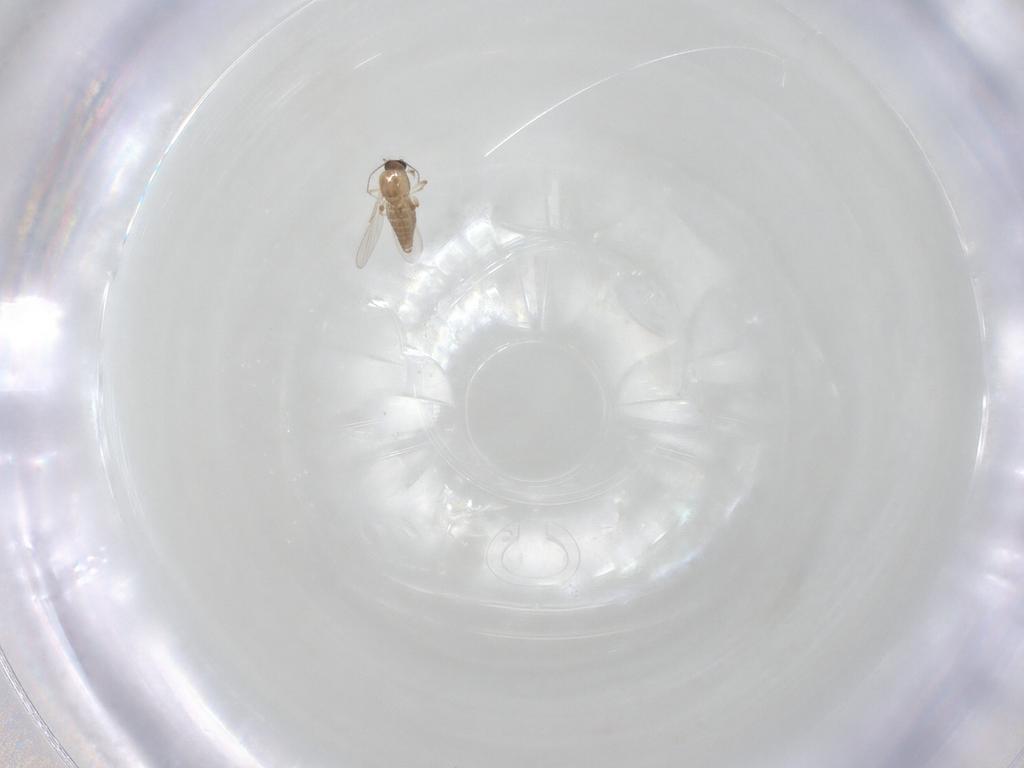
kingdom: Animalia
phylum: Arthropoda
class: Insecta
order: Diptera
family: Ceratopogonidae
